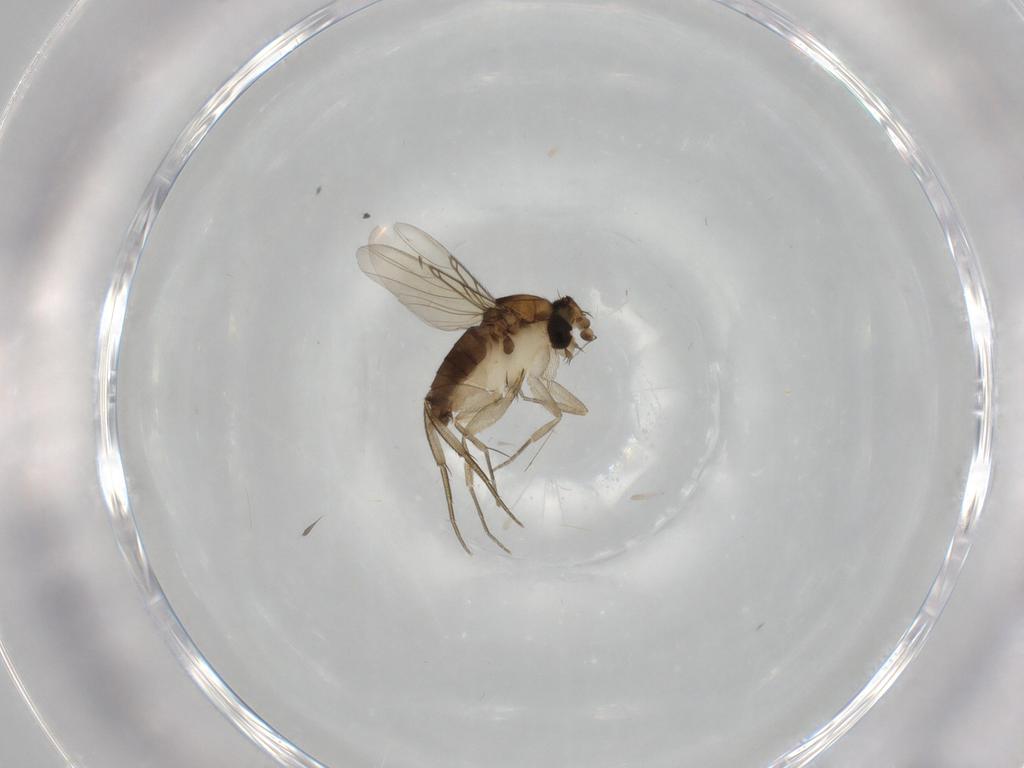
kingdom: Animalia
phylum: Arthropoda
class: Insecta
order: Diptera
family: Phoridae
